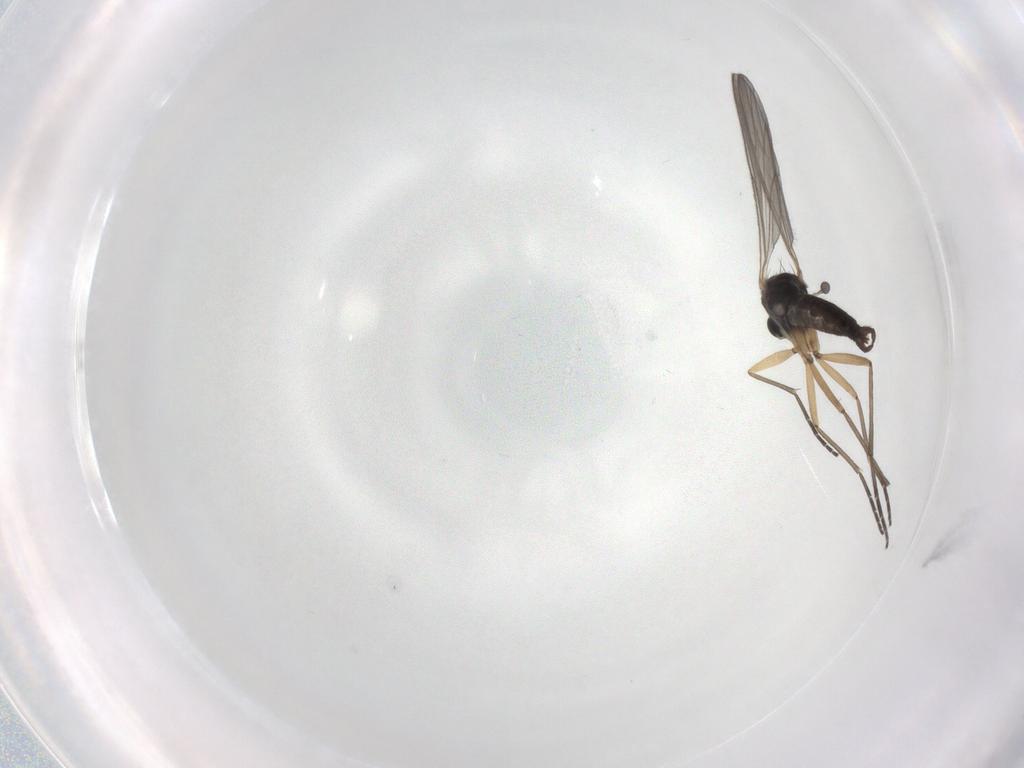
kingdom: Animalia
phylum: Arthropoda
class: Insecta
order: Diptera
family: Sciaridae
